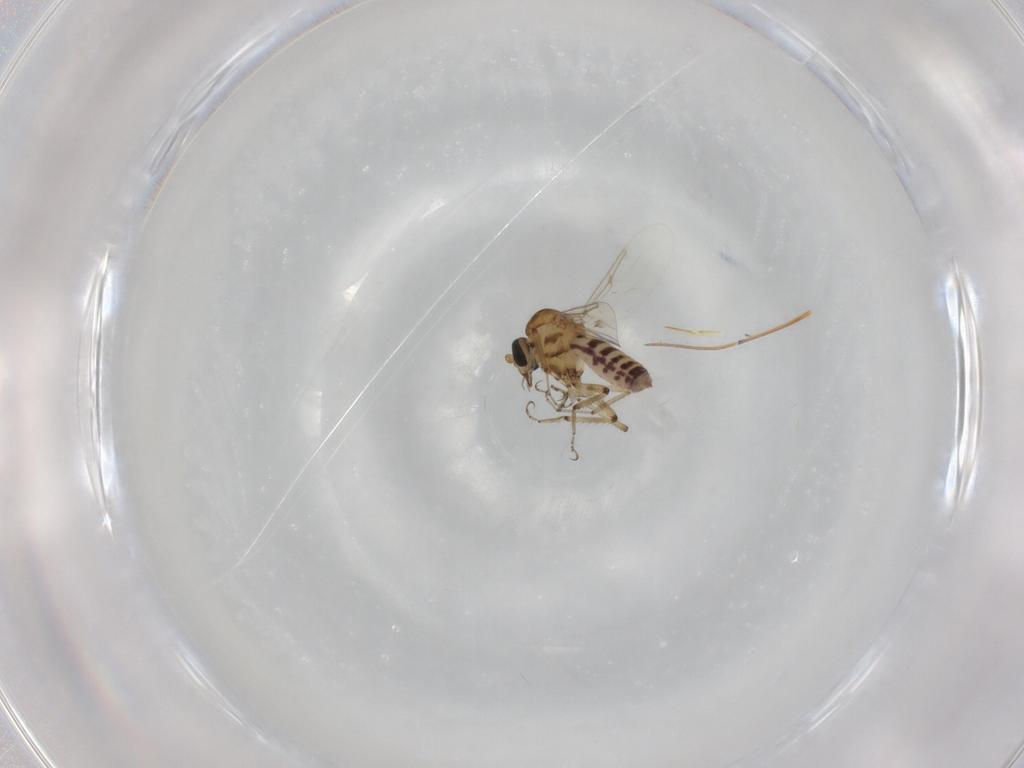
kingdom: Animalia
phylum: Arthropoda
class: Insecta
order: Diptera
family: Ceratopogonidae
